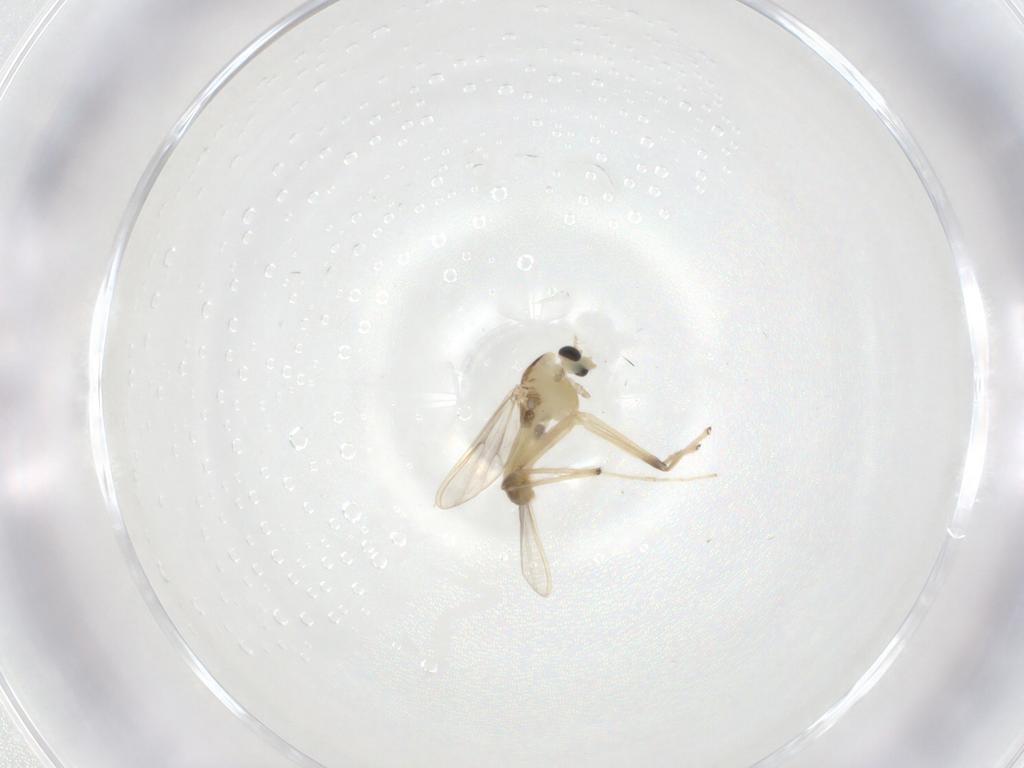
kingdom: Animalia
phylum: Arthropoda
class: Insecta
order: Diptera
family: Chironomidae
